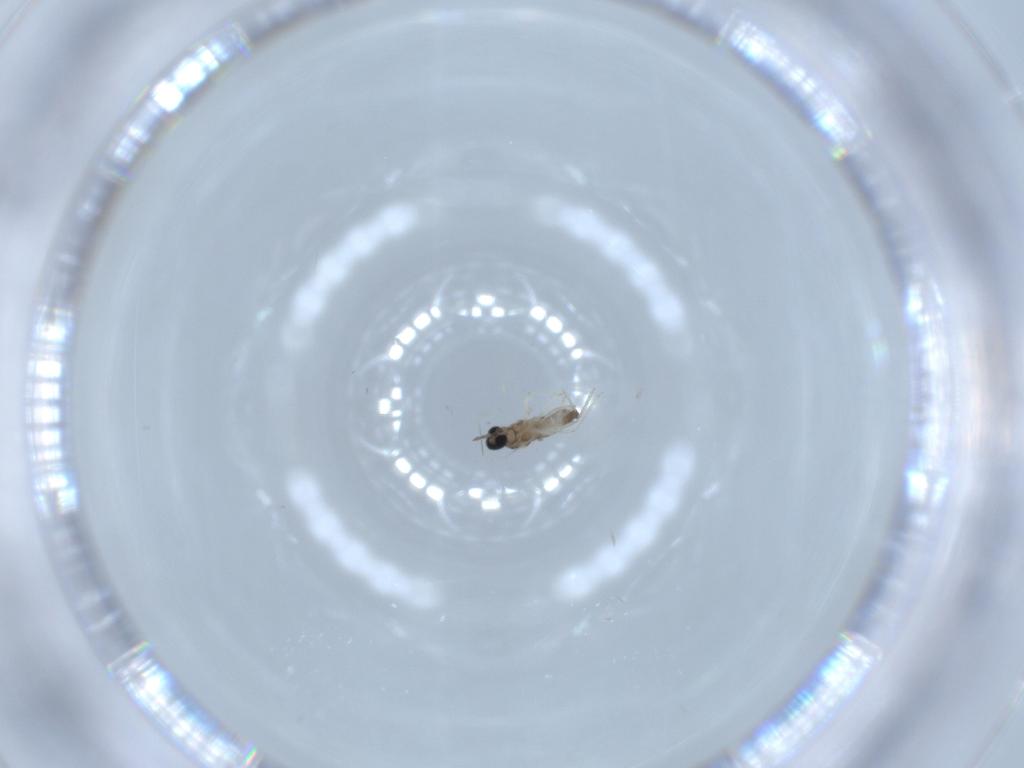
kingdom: Animalia
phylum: Arthropoda
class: Insecta
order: Diptera
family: Cecidomyiidae
